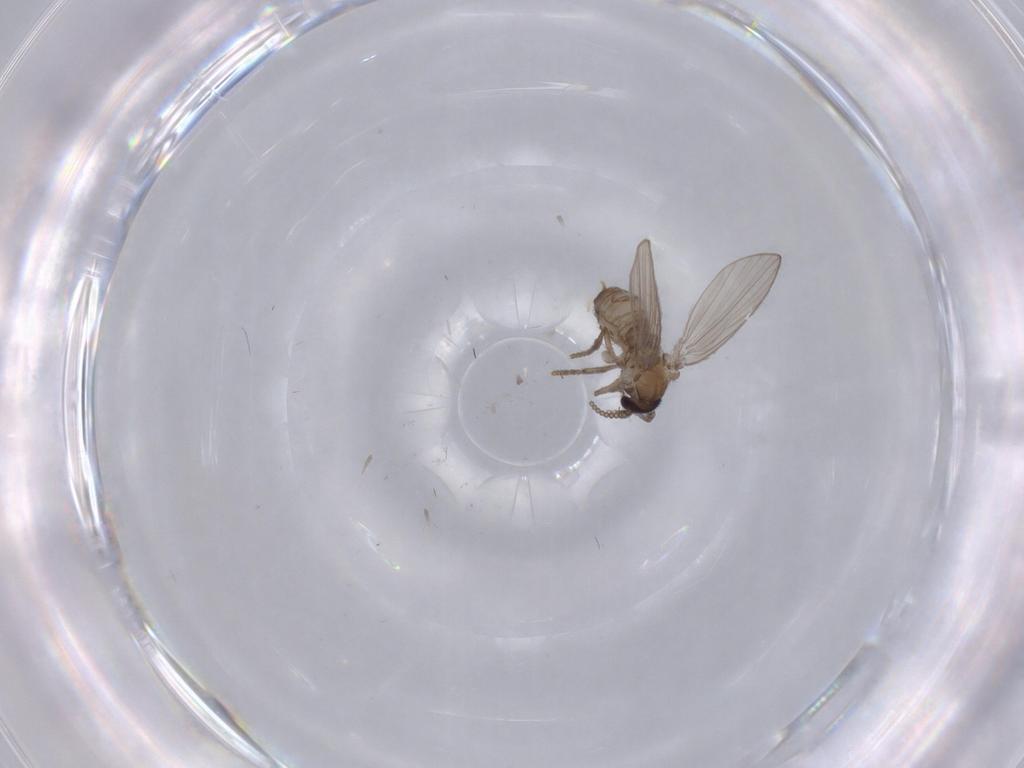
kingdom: Animalia
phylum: Arthropoda
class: Insecta
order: Diptera
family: Sciaridae
